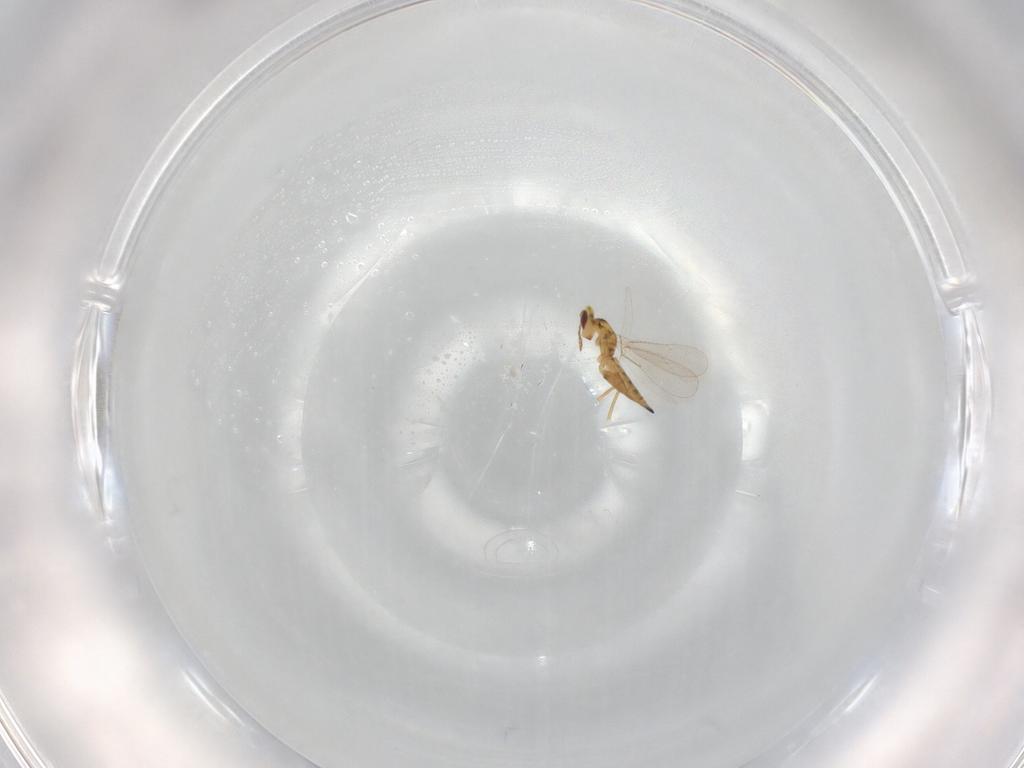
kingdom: Animalia
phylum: Arthropoda
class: Insecta
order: Hymenoptera
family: Eulophidae
